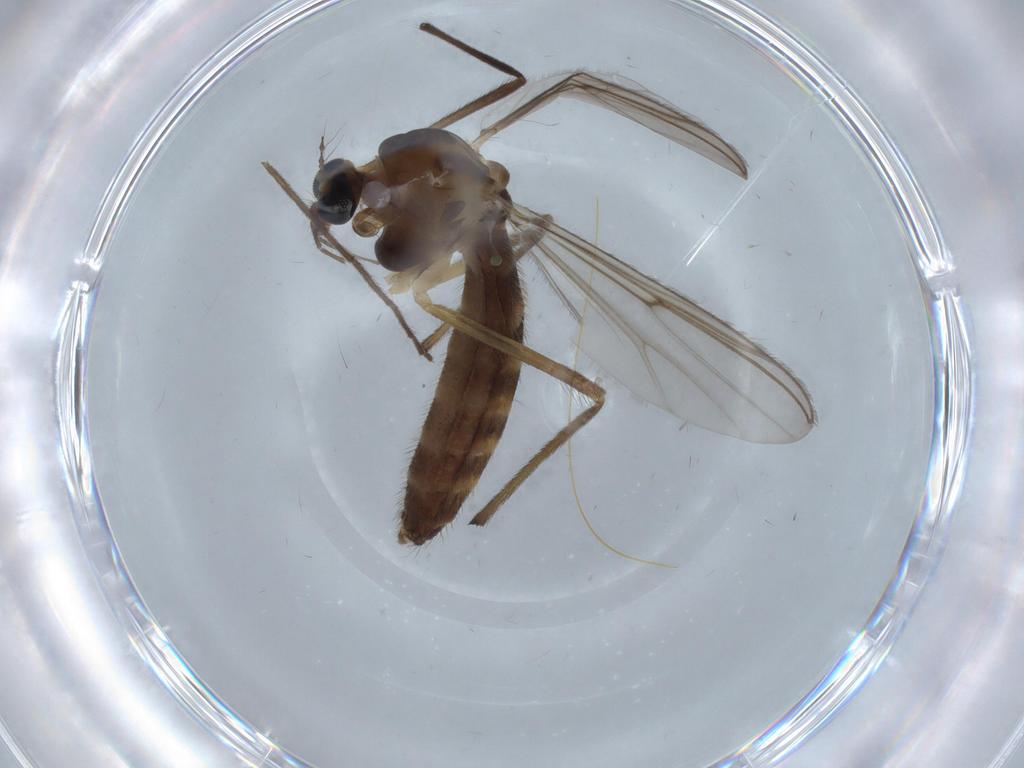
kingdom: Animalia
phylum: Arthropoda
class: Insecta
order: Diptera
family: Chironomidae
